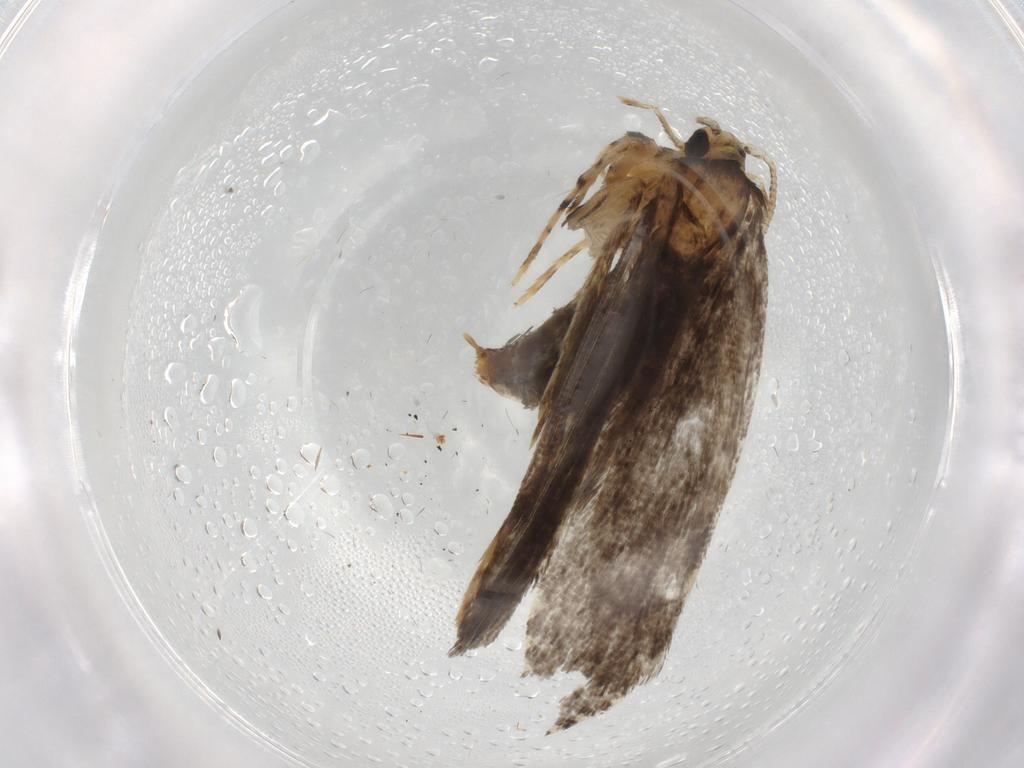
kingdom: Animalia
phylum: Arthropoda
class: Insecta
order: Lepidoptera
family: Tineidae
